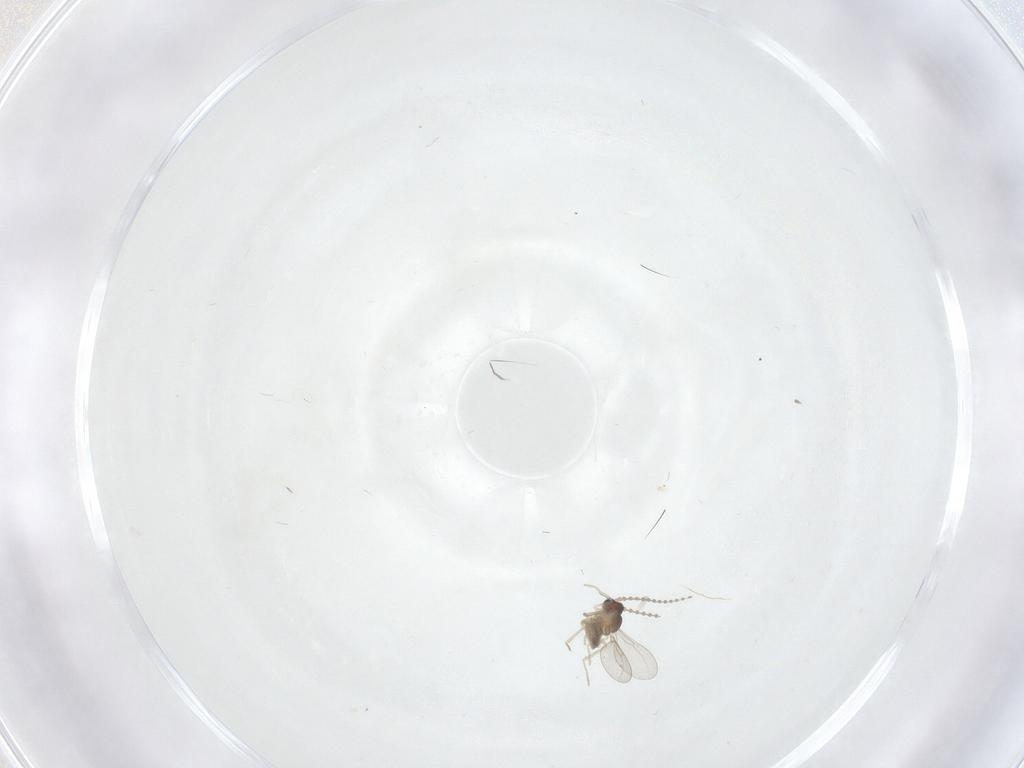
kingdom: Animalia
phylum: Arthropoda
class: Insecta
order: Diptera
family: Cecidomyiidae
